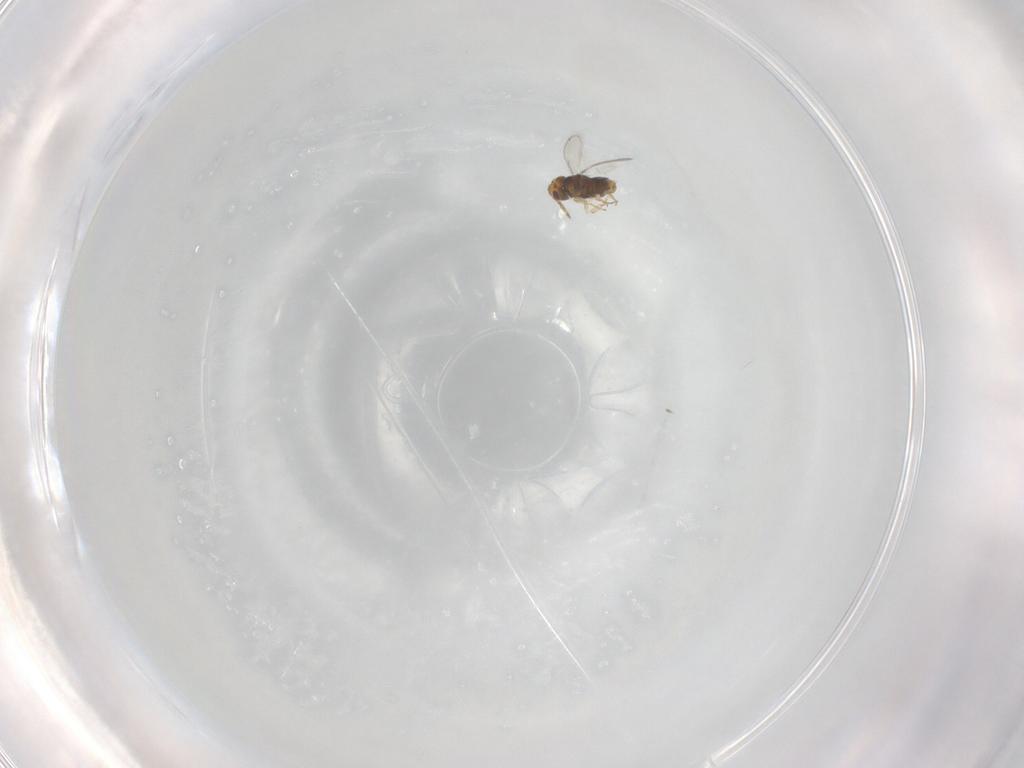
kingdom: Animalia
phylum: Arthropoda
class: Insecta
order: Hymenoptera
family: Aphelinidae
